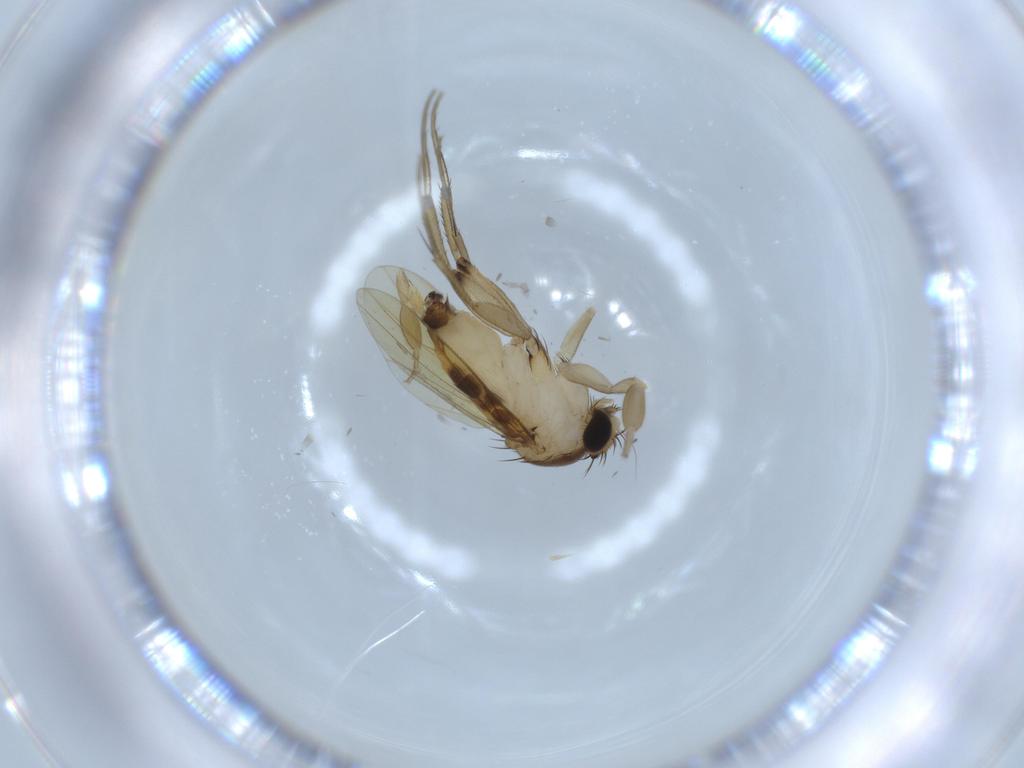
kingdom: Animalia
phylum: Arthropoda
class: Insecta
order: Diptera
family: Phoridae
